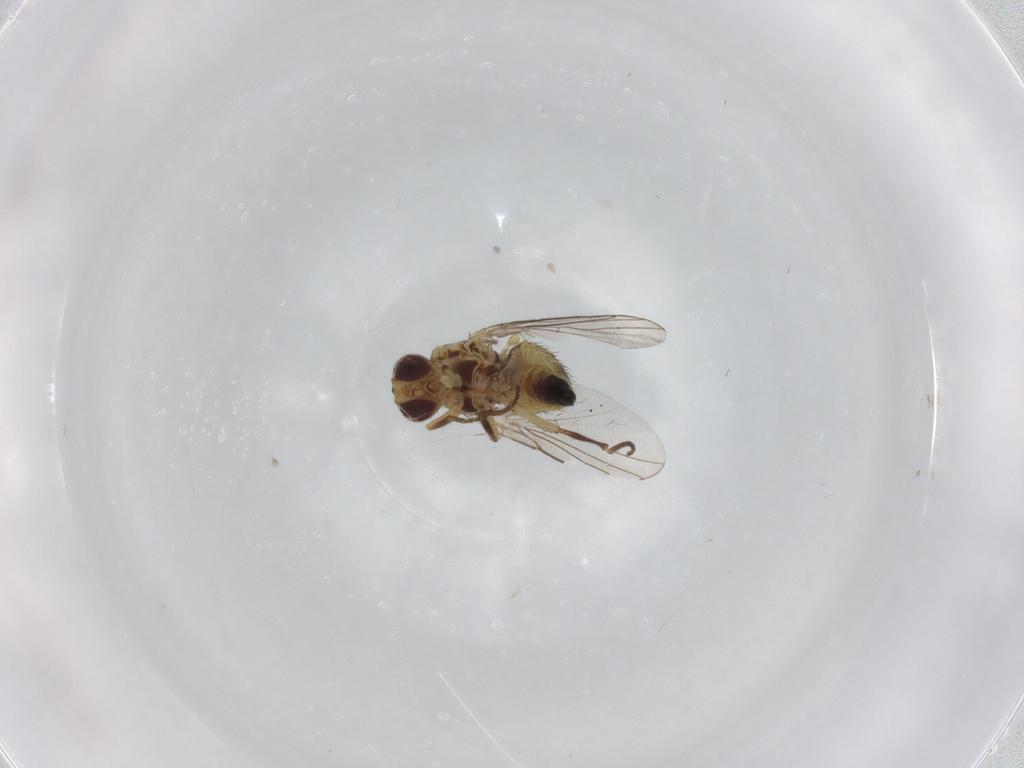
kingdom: Animalia
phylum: Arthropoda
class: Insecta
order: Diptera
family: Agromyzidae
